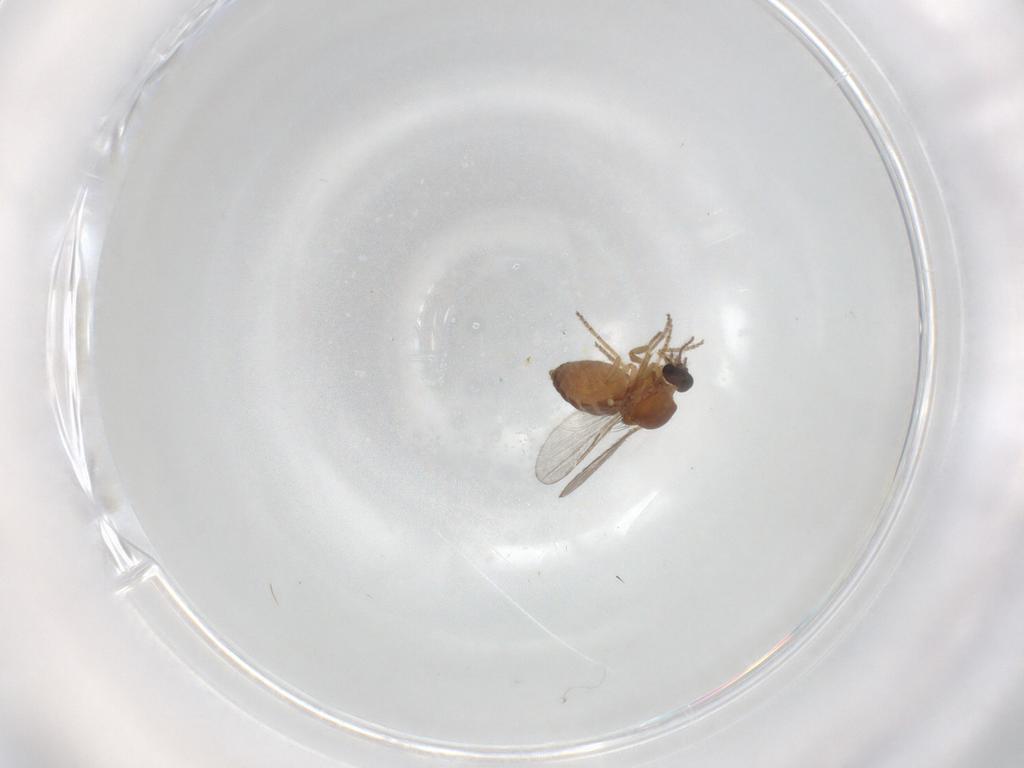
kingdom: Animalia
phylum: Arthropoda
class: Insecta
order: Diptera
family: Ceratopogonidae
